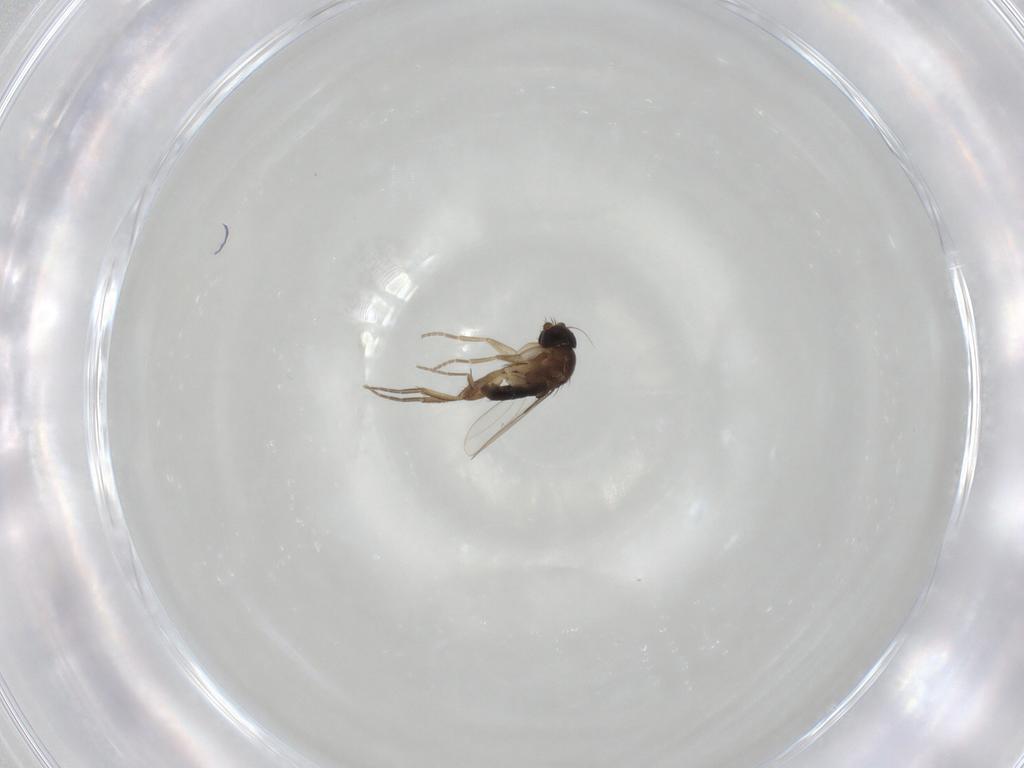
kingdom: Animalia
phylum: Arthropoda
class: Insecta
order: Diptera
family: Phoridae
